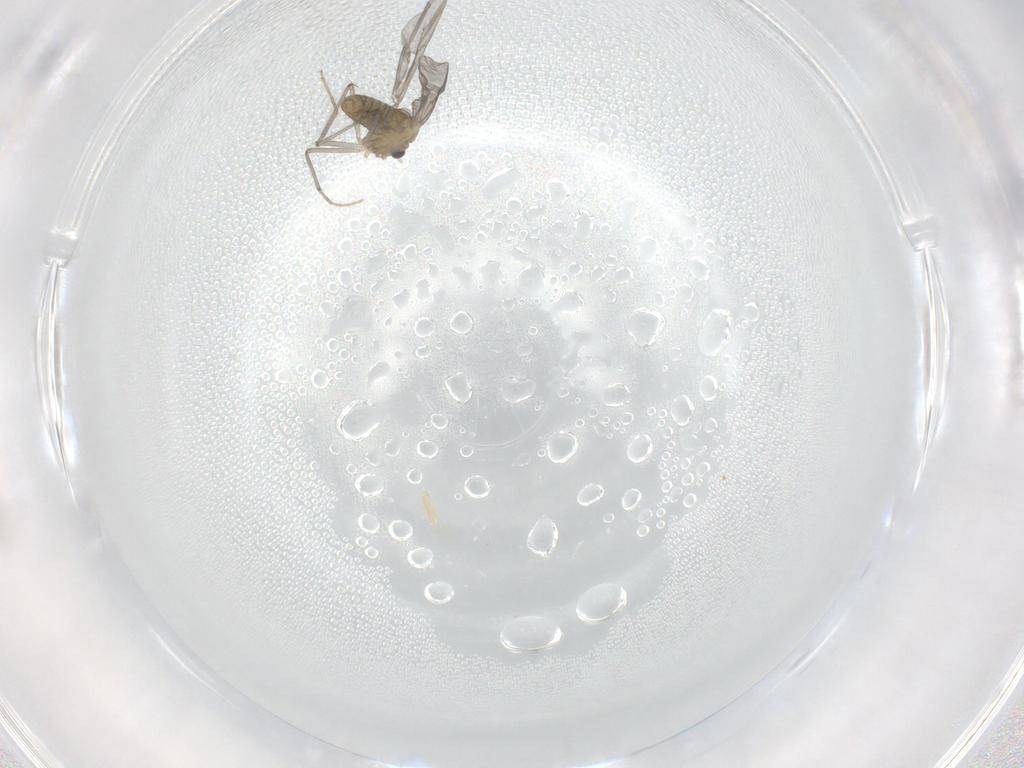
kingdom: Animalia
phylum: Arthropoda
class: Insecta
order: Diptera
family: Chironomidae
